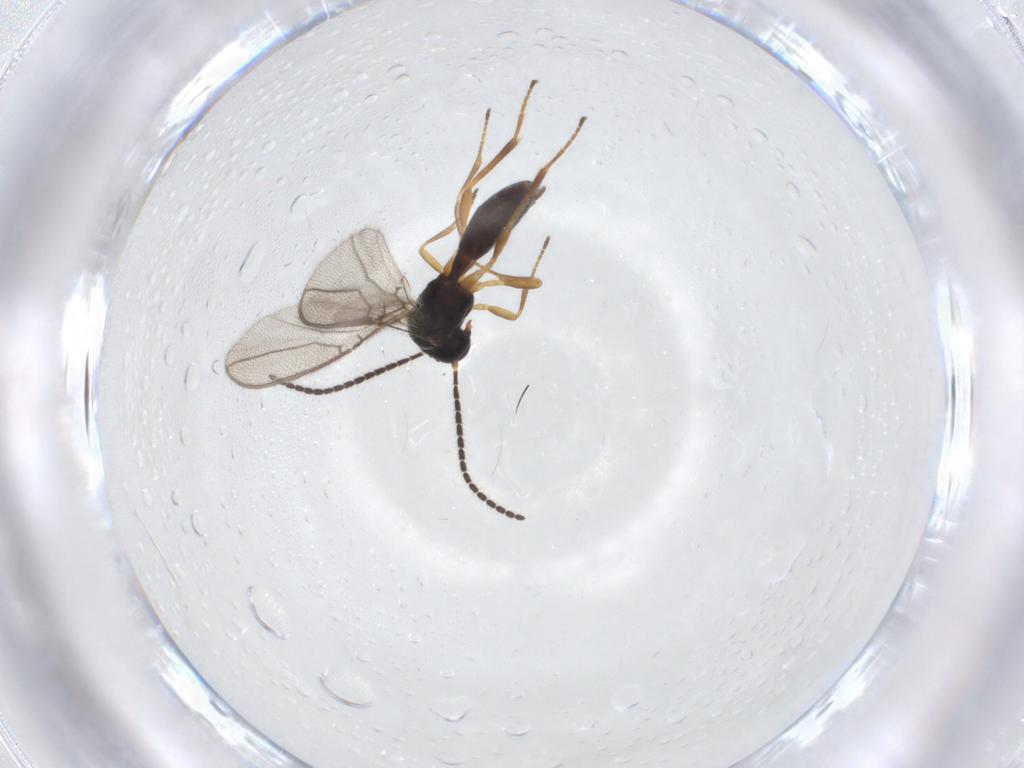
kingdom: Animalia
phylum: Arthropoda
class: Insecta
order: Hymenoptera
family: Braconidae
